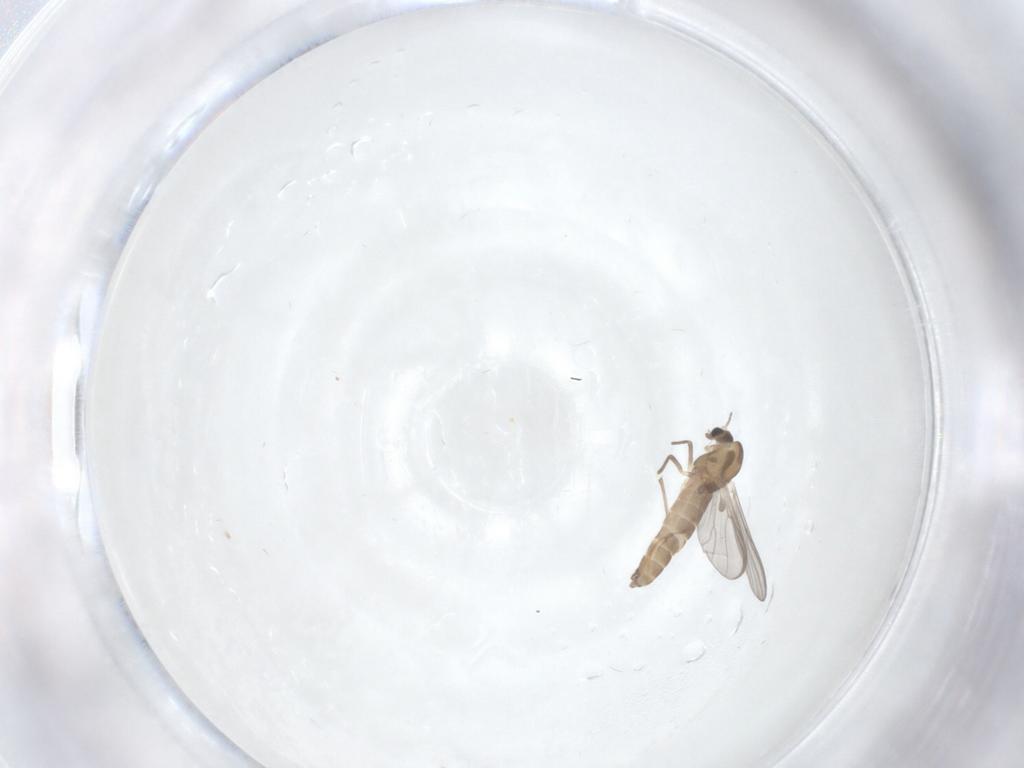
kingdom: Animalia
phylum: Arthropoda
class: Insecta
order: Diptera
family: Chironomidae
